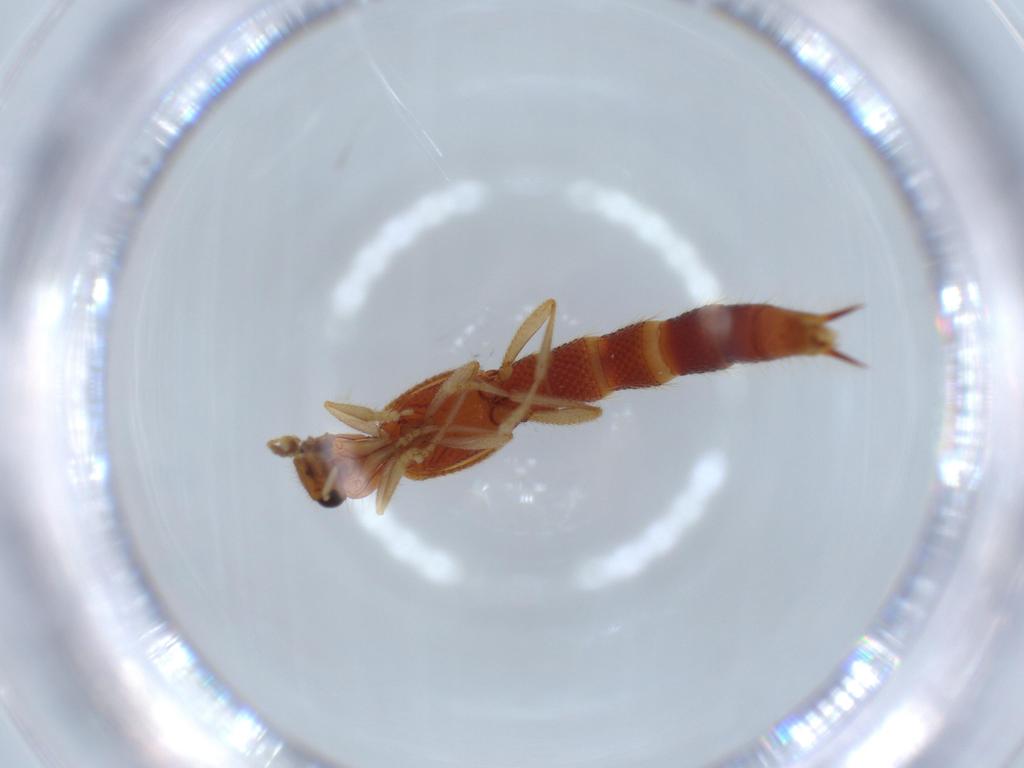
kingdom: Animalia
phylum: Arthropoda
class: Insecta
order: Coleoptera
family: Staphylinidae
